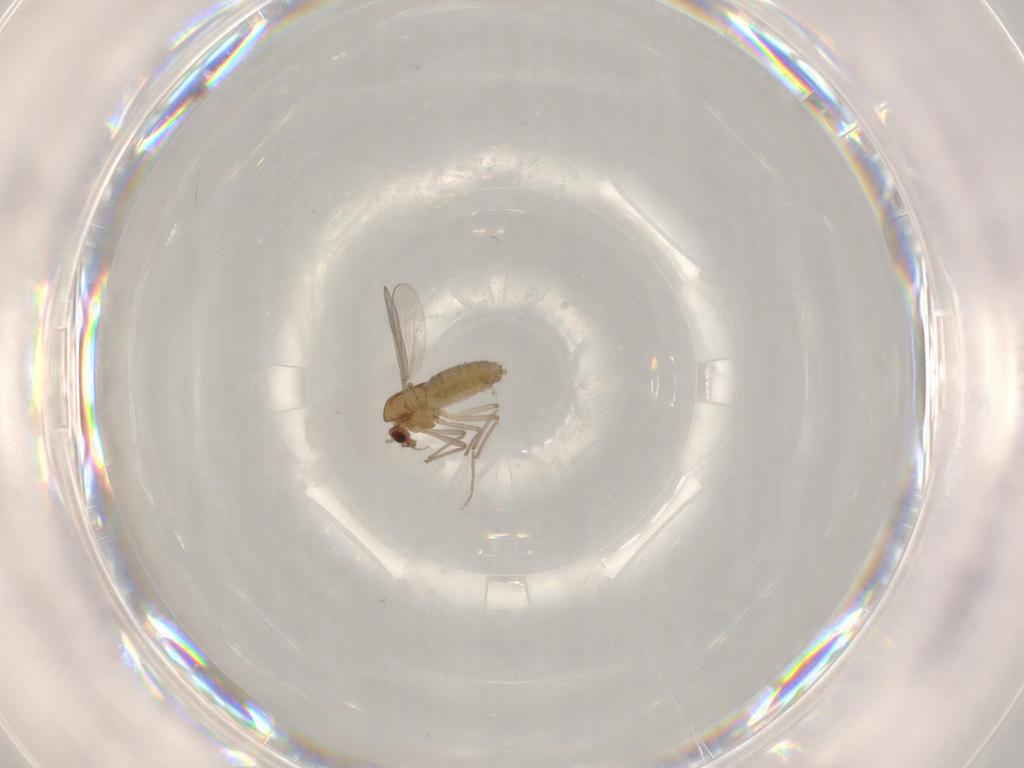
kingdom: Animalia
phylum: Arthropoda
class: Insecta
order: Diptera
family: Chironomidae
